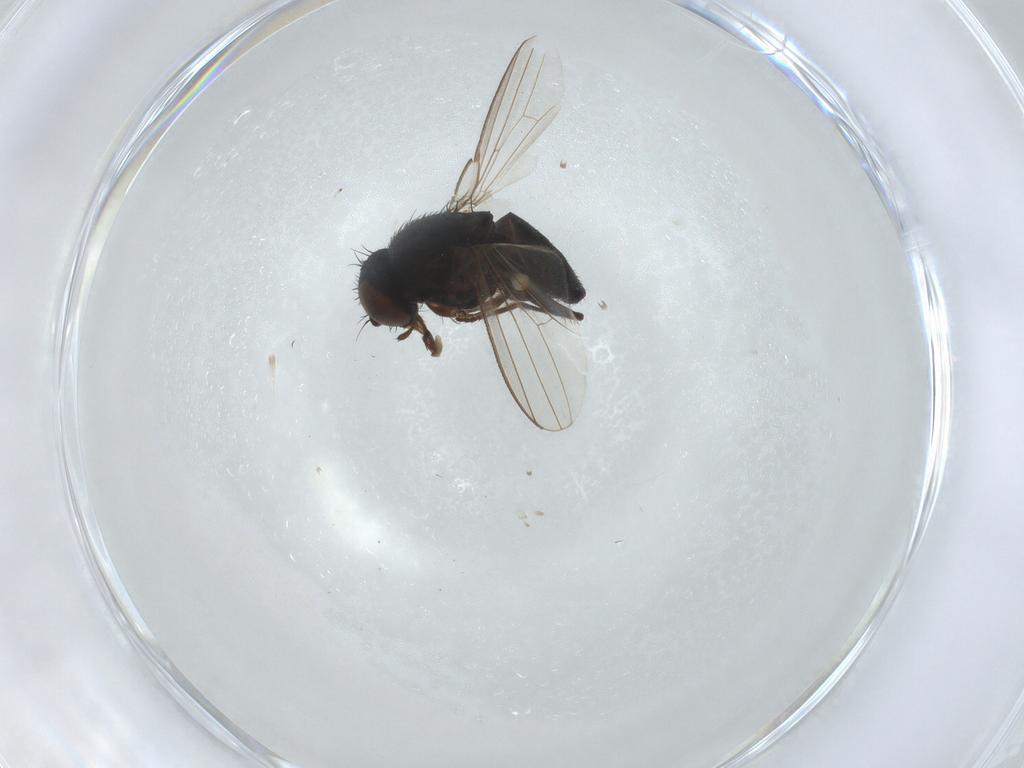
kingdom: Animalia
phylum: Arthropoda
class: Insecta
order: Diptera
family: Chloropidae
